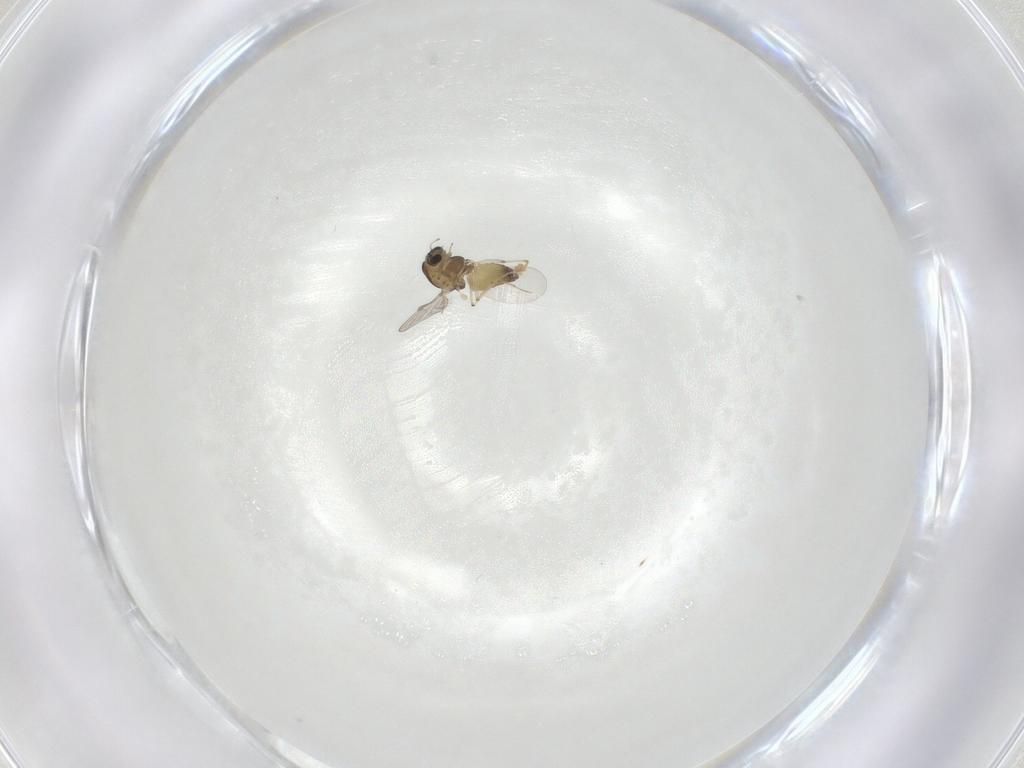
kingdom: Animalia
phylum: Arthropoda
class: Insecta
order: Diptera
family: Chironomidae
